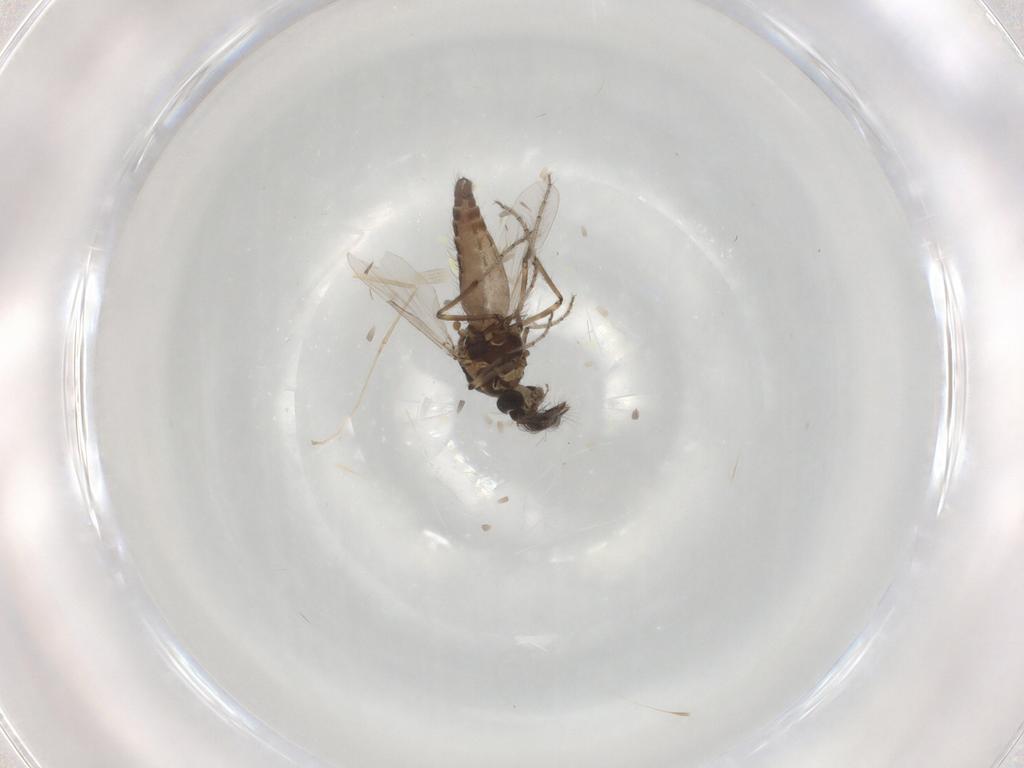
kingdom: Animalia
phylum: Arthropoda
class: Insecta
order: Diptera
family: Ceratopogonidae
